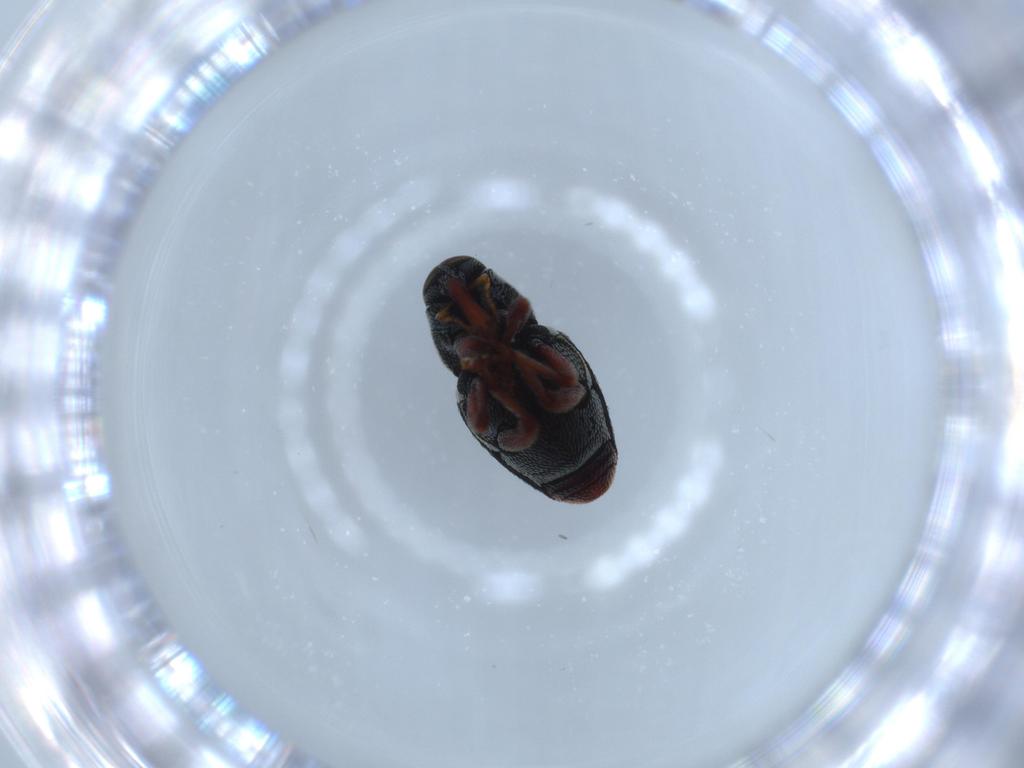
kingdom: Animalia
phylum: Arthropoda
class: Insecta
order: Coleoptera
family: Curculionidae
